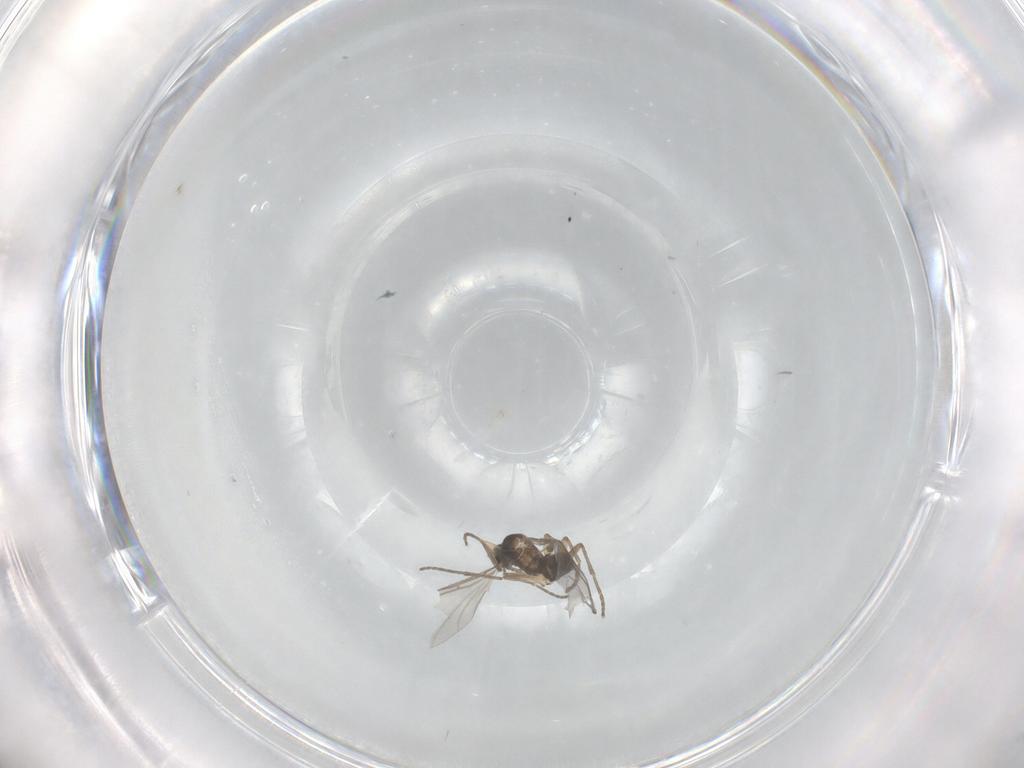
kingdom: Animalia
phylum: Arthropoda
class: Insecta
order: Diptera
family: Sciaridae
